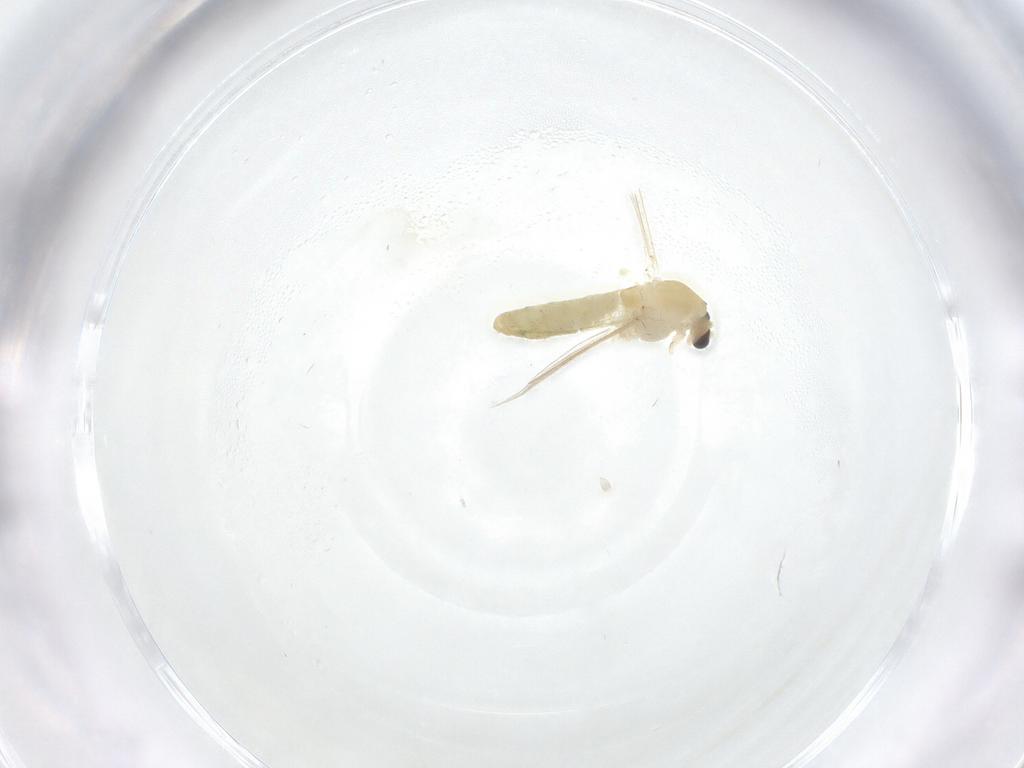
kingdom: Animalia
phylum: Arthropoda
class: Insecta
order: Diptera
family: Chironomidae
